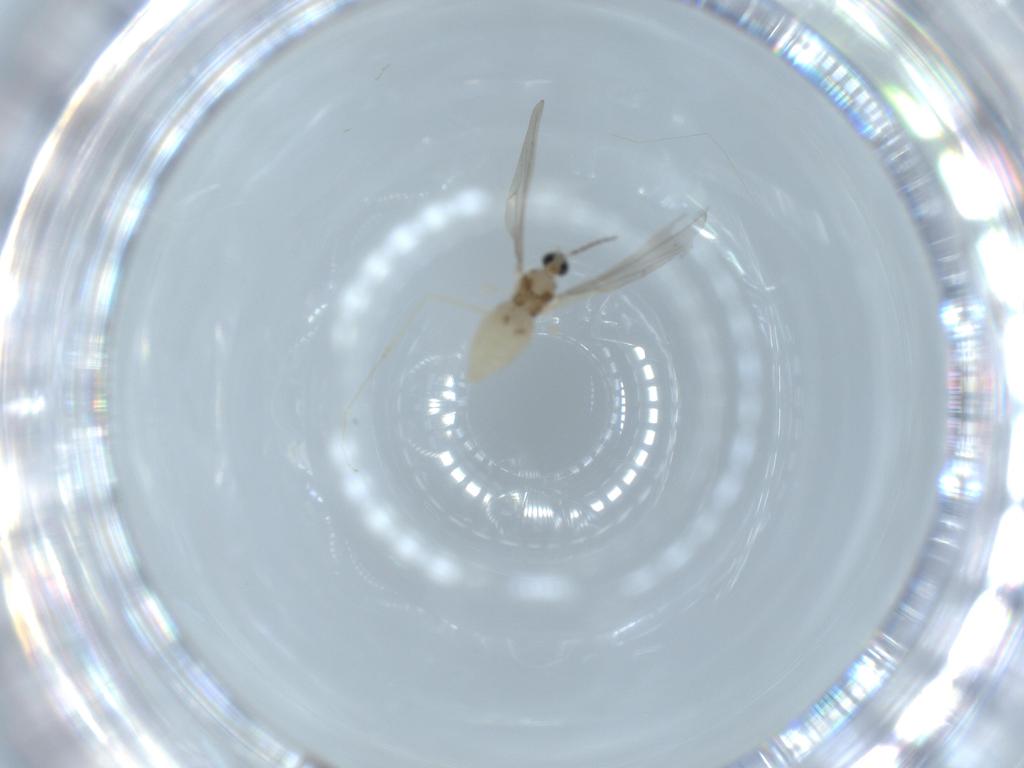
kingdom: Animalia
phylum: Arthropoda
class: Insecta
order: Diptera
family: Cecidomyiidae
